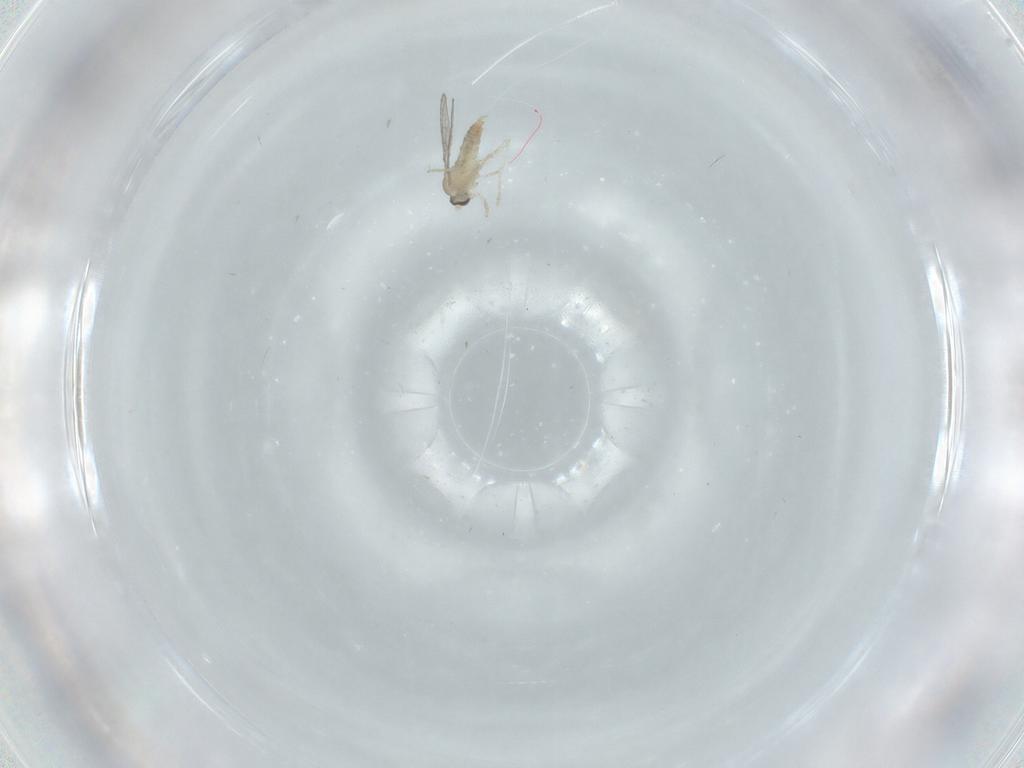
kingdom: Animalia
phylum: Arthropoda
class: Insecta
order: Diptera
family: Cecidomyiidae
